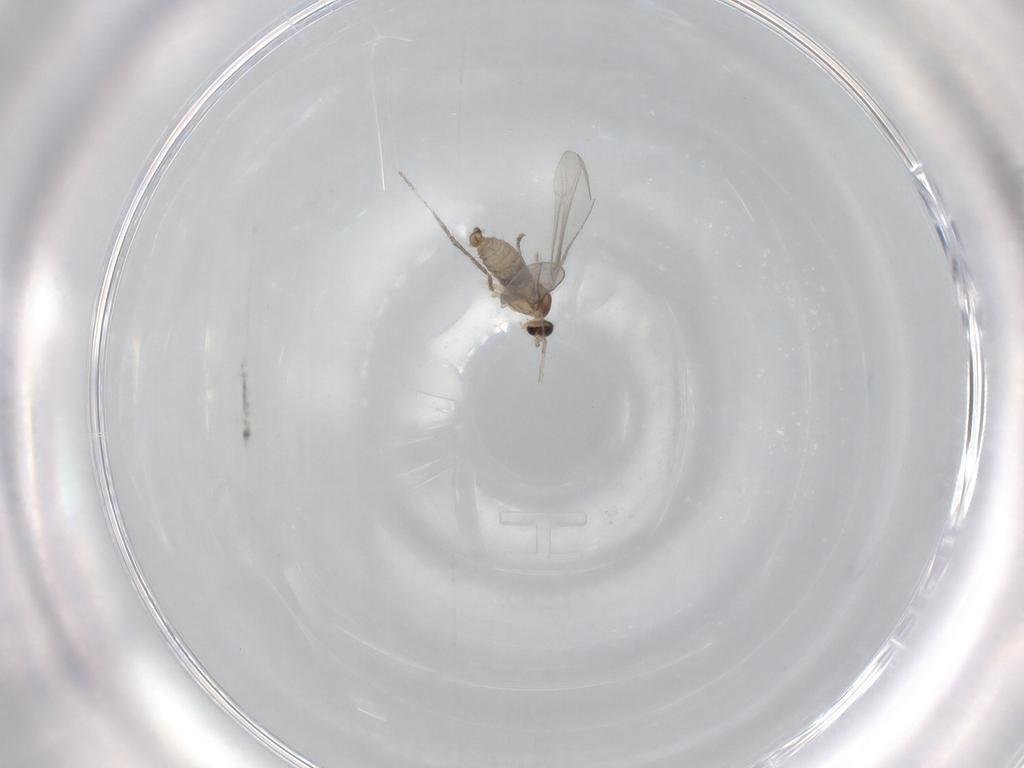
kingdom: Animalia
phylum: Arthropoda
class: Insecta
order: Diptera
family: Cecidomyiidae
